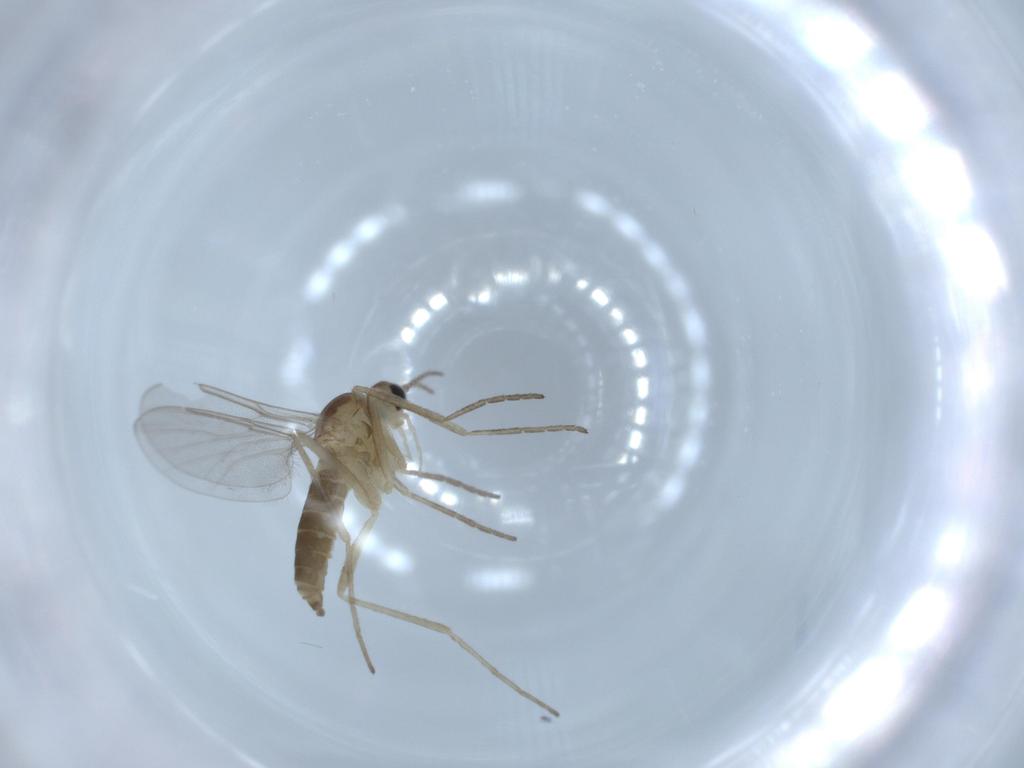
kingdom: Animalia
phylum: Arthropoda
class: Insecta
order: Diptera
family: Cecidomyiidae
